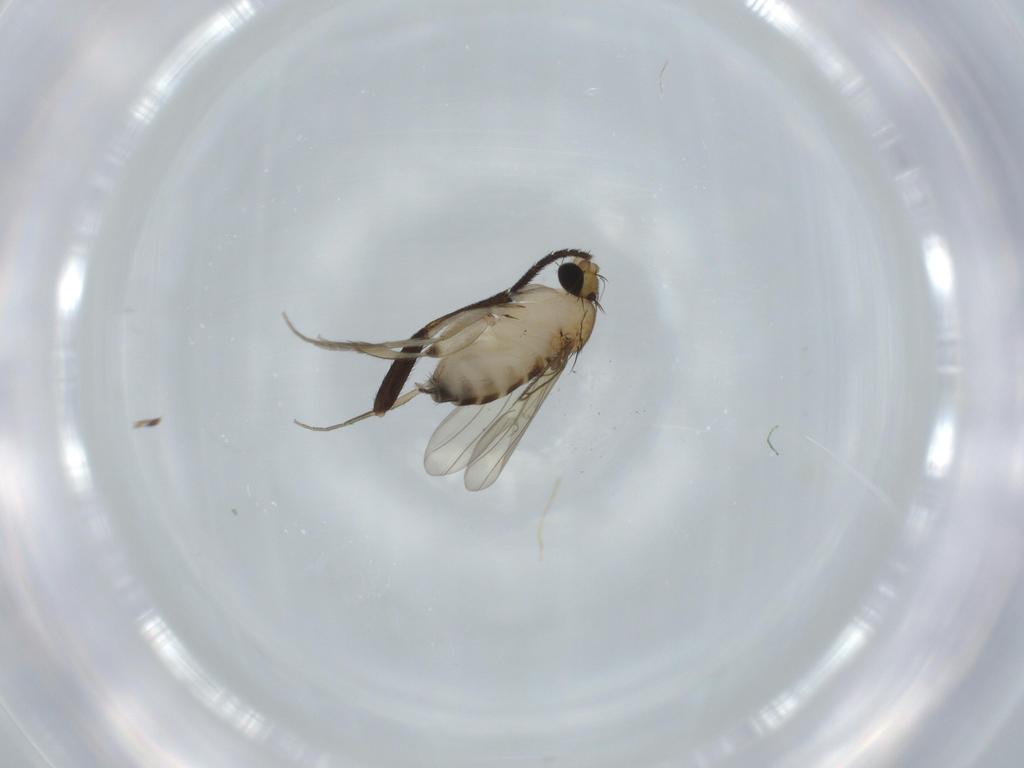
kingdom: Animalia
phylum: Arthropoda
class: Insecta
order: Diptera
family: Phoridae
